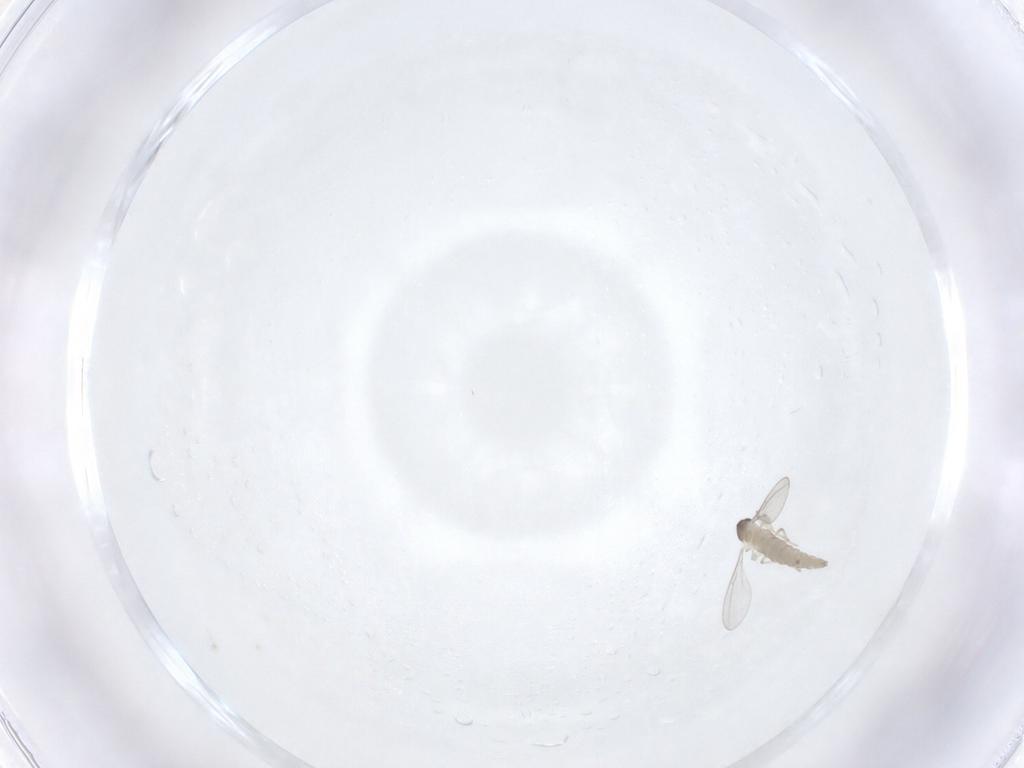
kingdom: Animalia
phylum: Arthropoda
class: Insecta
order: Diptera
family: Cecidomyiidae
